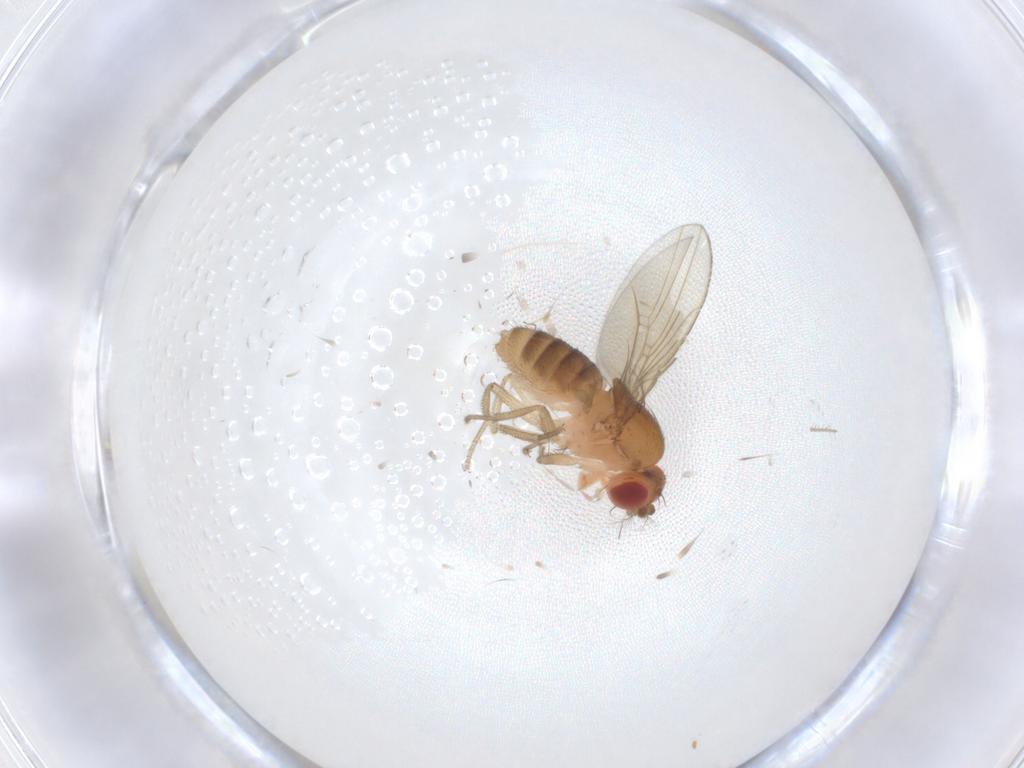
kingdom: Animalia
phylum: Arthropoda
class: Insecta
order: Diptera
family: Drosophilidae
